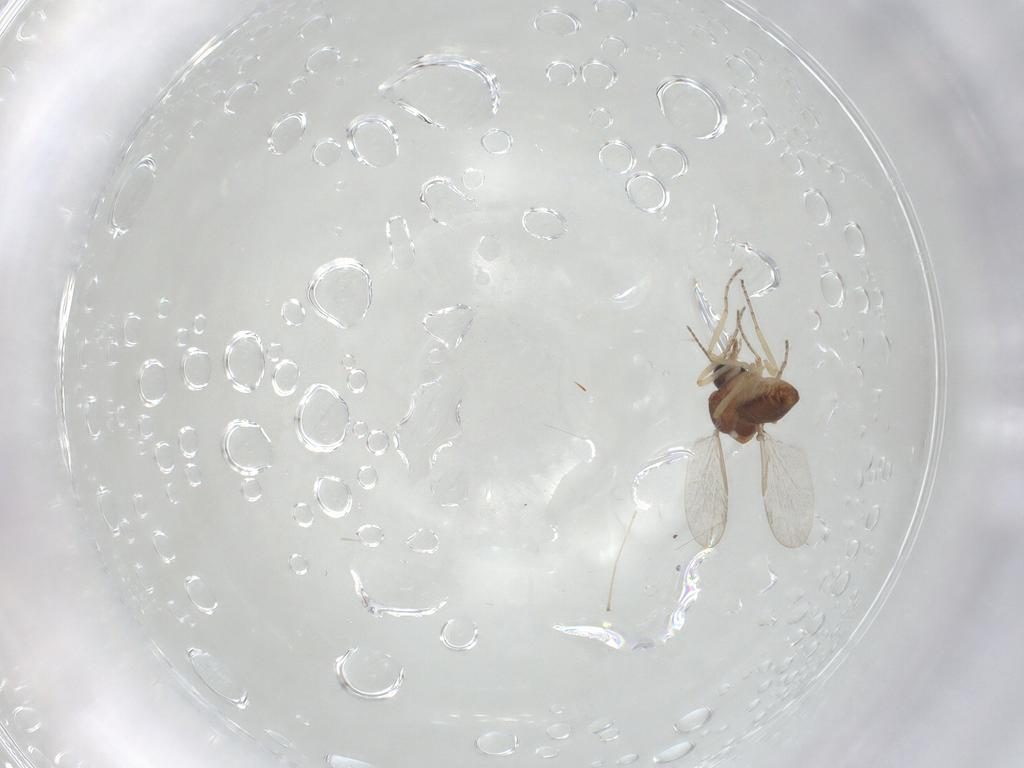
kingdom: Animalia
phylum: Arthropoda
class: Insecta
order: Diptera
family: Ceratopogonidae
